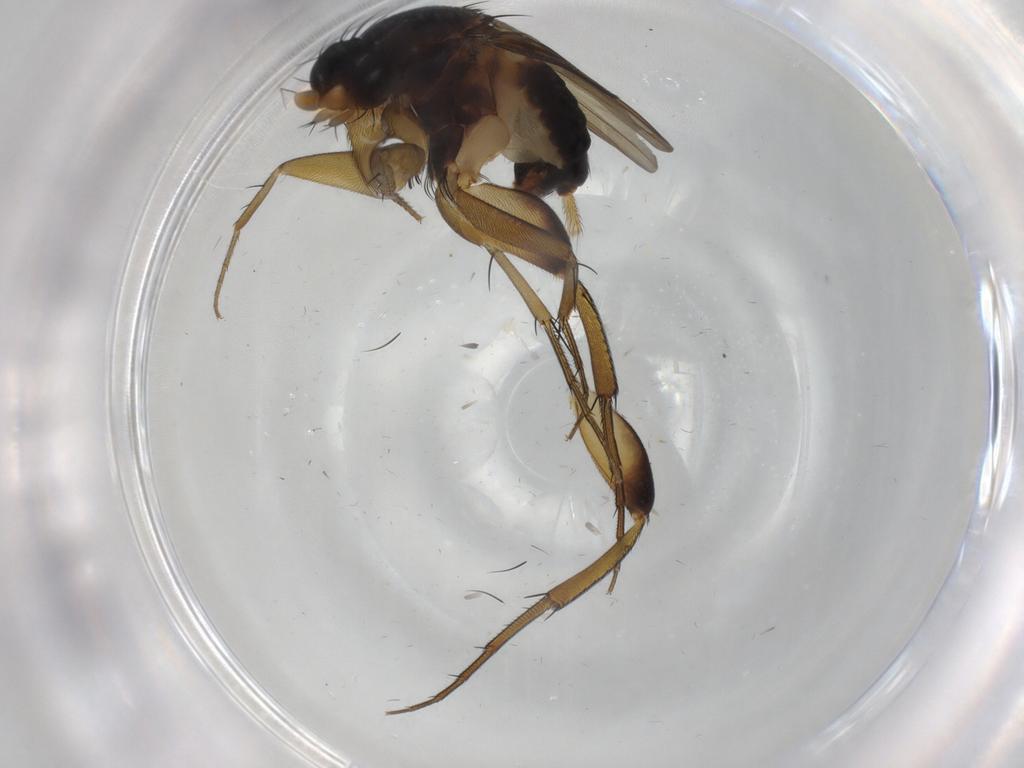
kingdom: Animalia
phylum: Arthropoda
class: Insecta
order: Diptera
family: Phoridae
